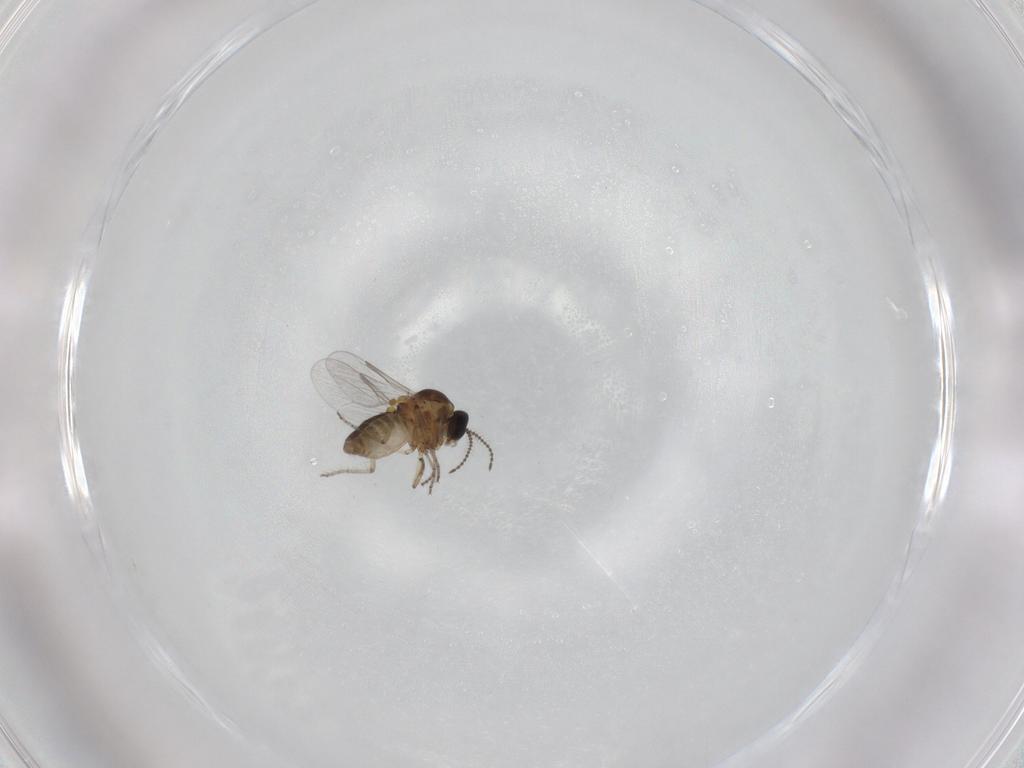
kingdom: Animalia
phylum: Arthropoda
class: Insecta
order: Diptera
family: Ceratopogonidae
